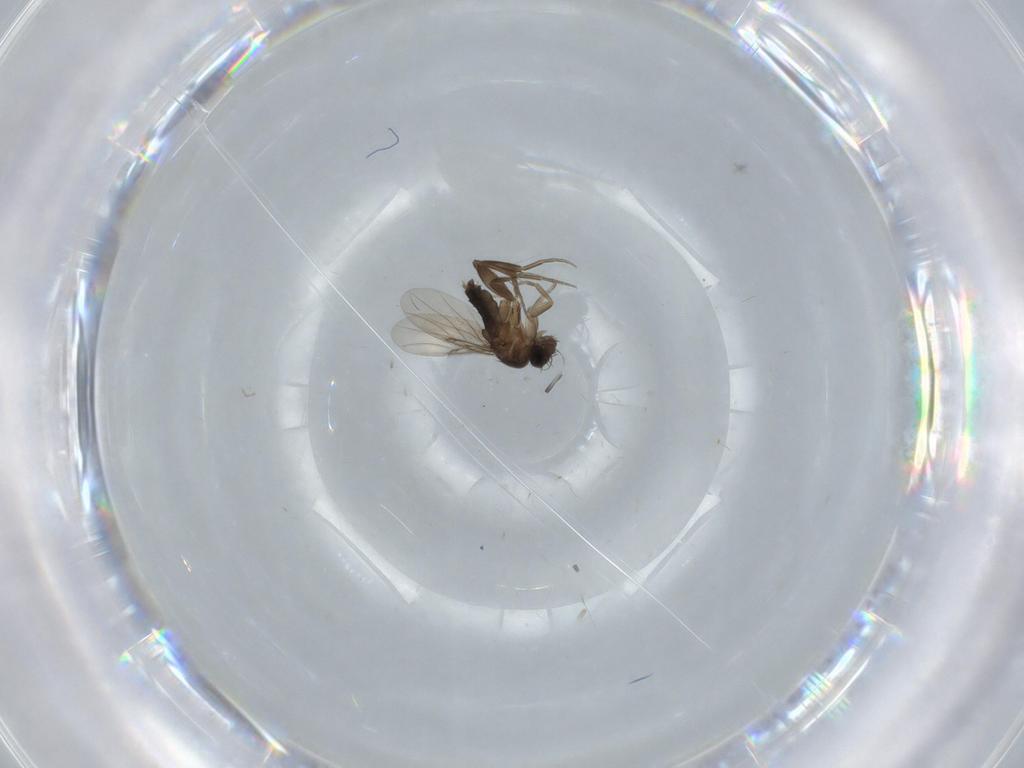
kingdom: Animalia
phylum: Arthropoda
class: Insecta
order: Diptera
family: Phoridae
